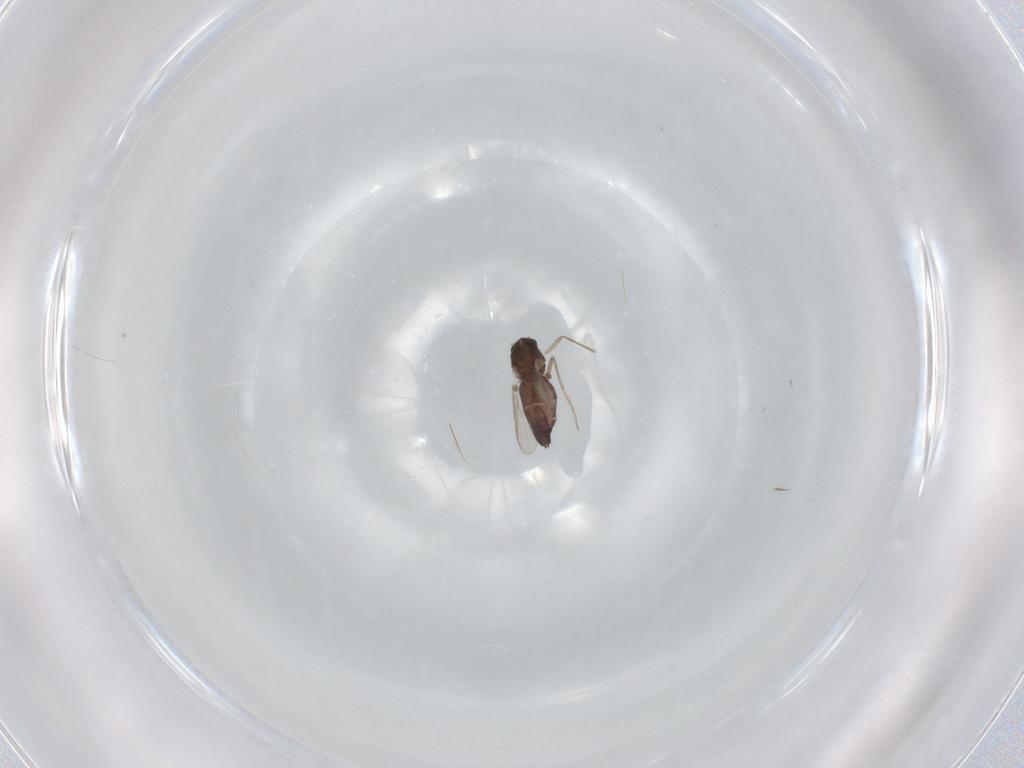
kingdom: Animalia
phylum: Arthropoda
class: Insecta
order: Diptera
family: Chironomidae
